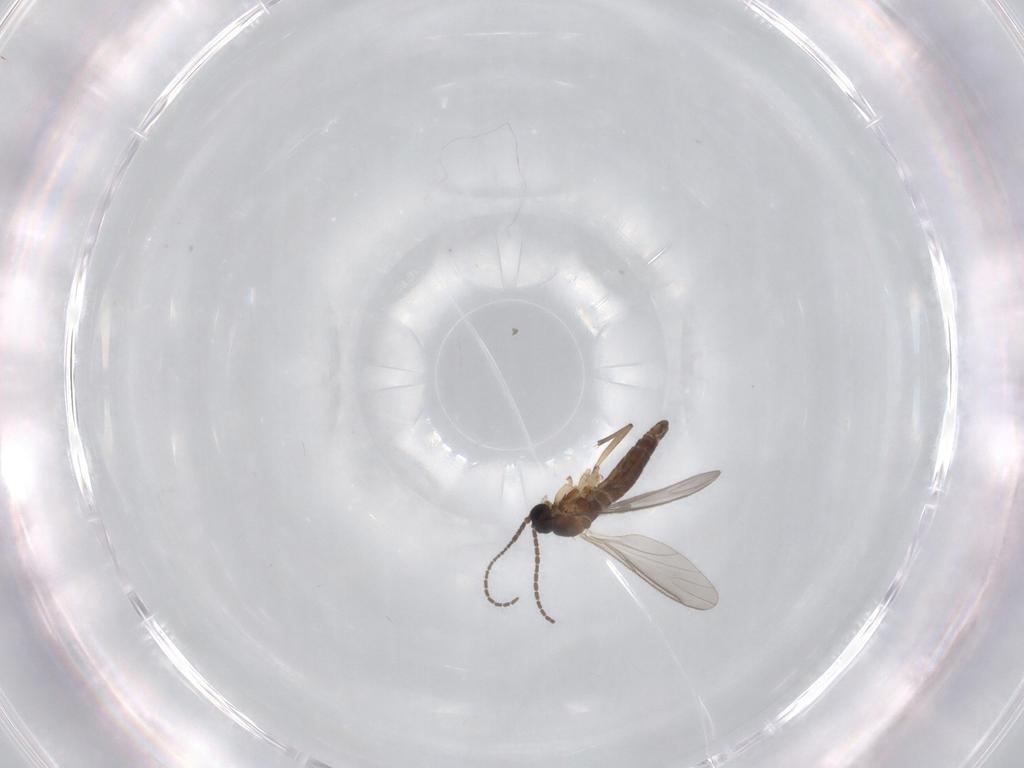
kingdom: Animalia
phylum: Arthropoda
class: Insecta
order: Diptera
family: Sciaridae
